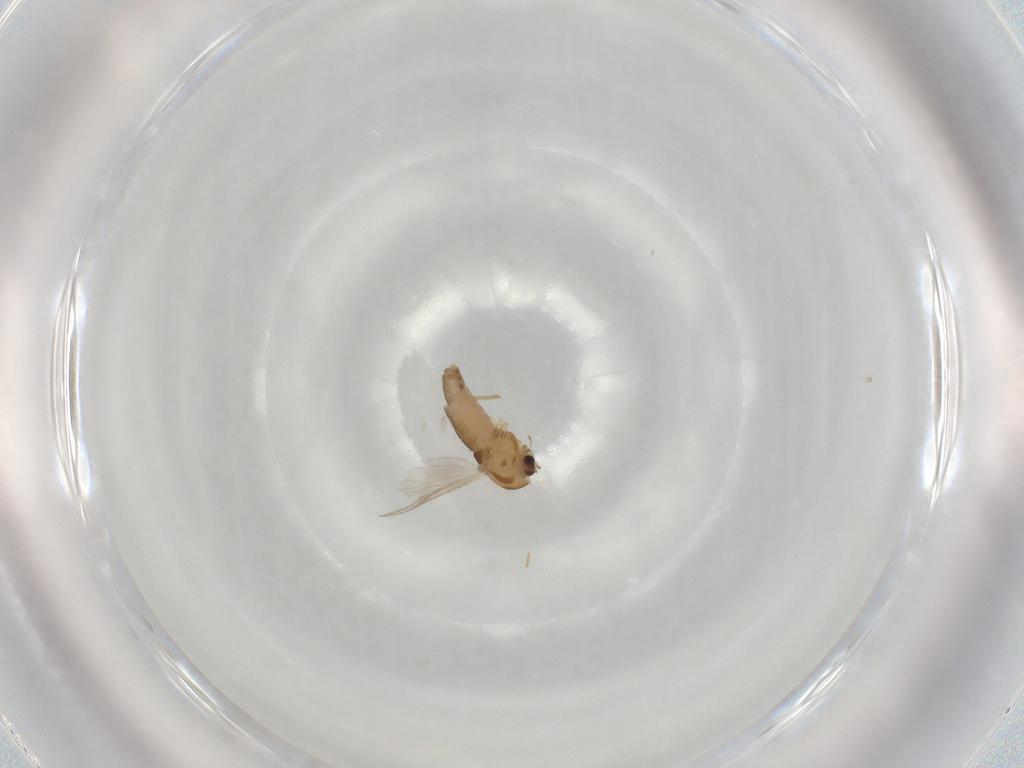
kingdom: Animalia
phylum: Arthropoda
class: Insecta
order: Diptera
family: Chironomidae
